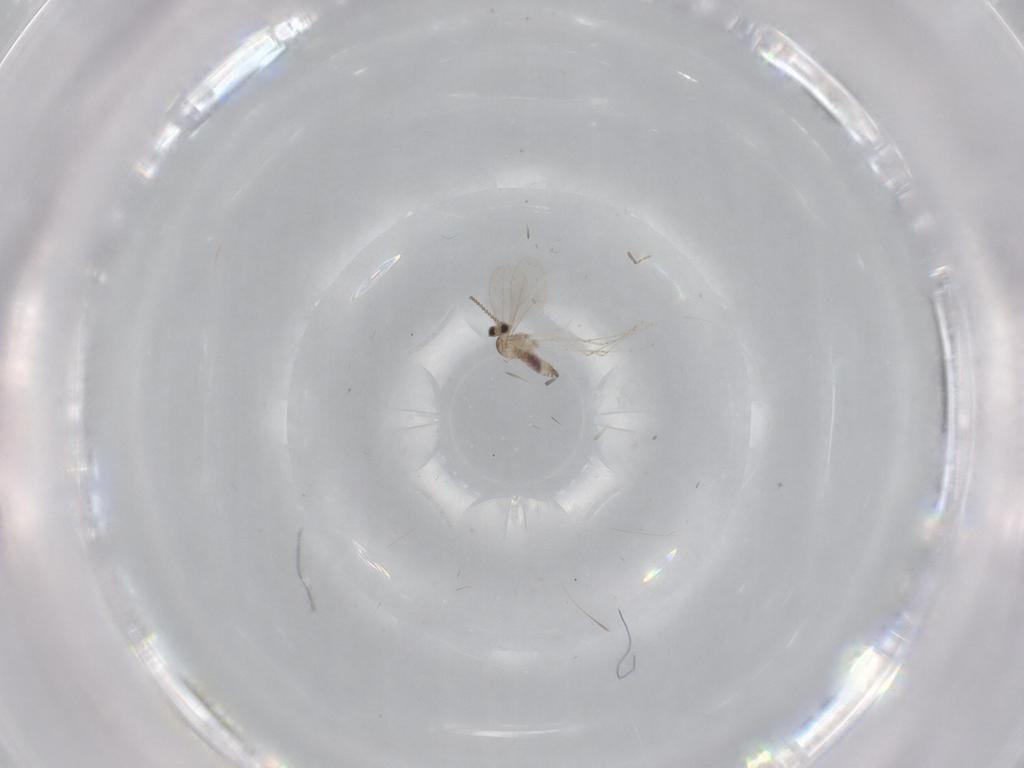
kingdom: Animalia
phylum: Arthropoda
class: Insecta
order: Diptera
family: Cecidomyiidae
